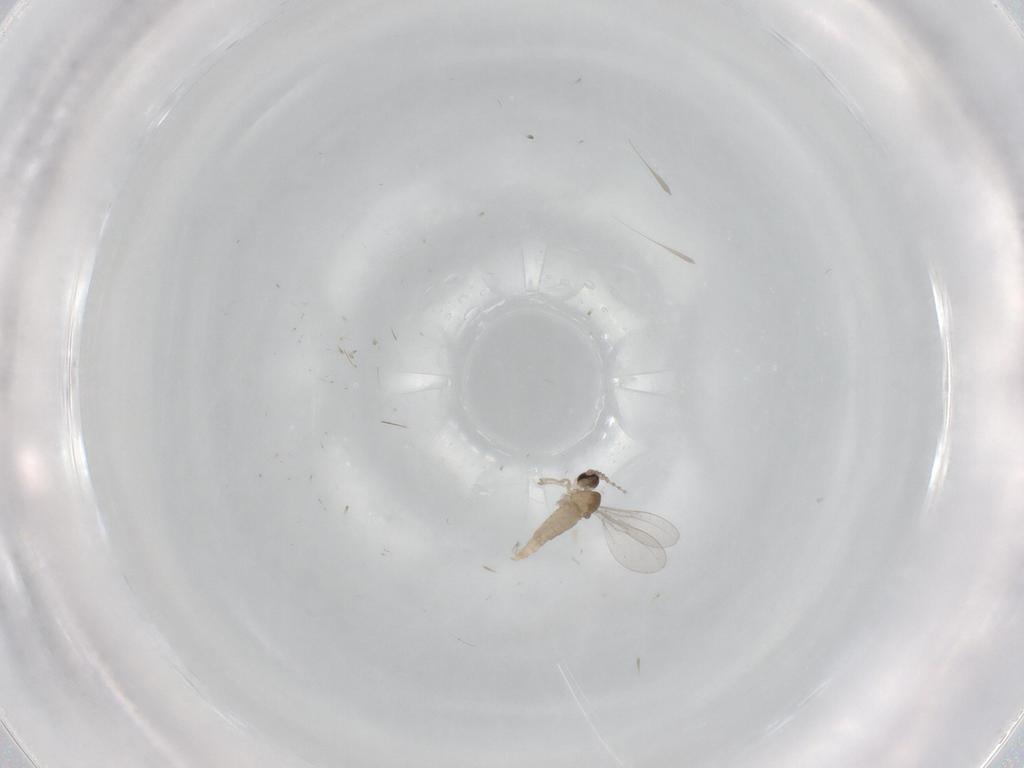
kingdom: Animalia
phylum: Arthropoda
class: Insecta
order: Diptera
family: Cecidomyiidae
